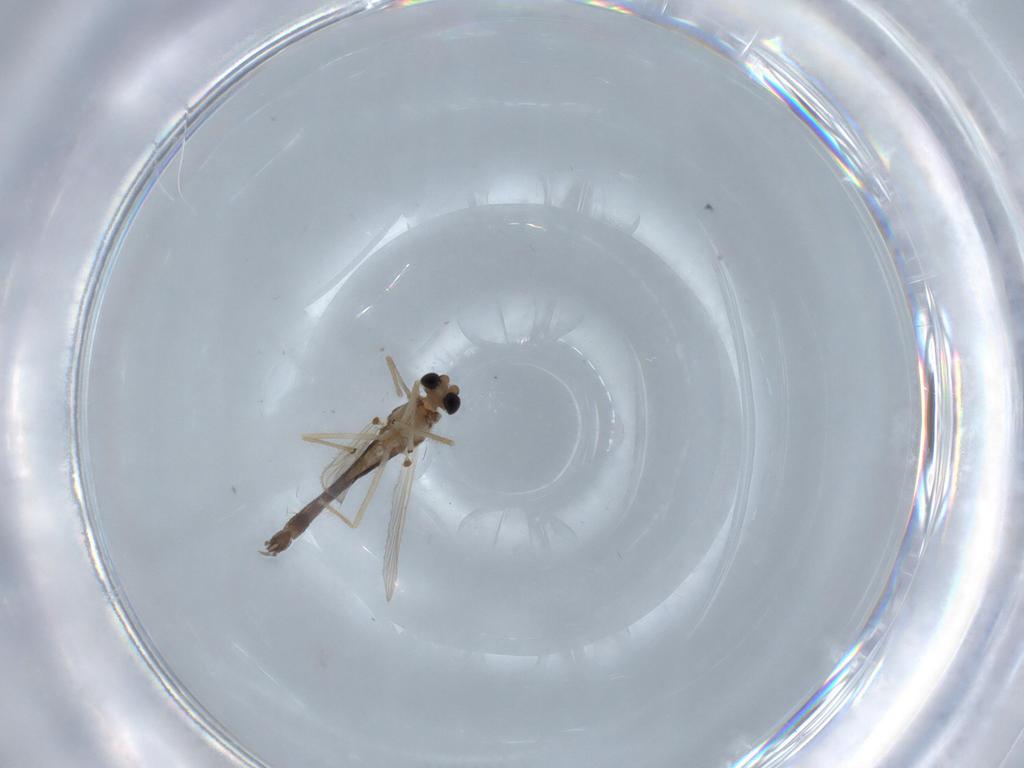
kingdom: Animalia
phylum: Arthropoda
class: Insecta
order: Diptera
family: Chironomidae
